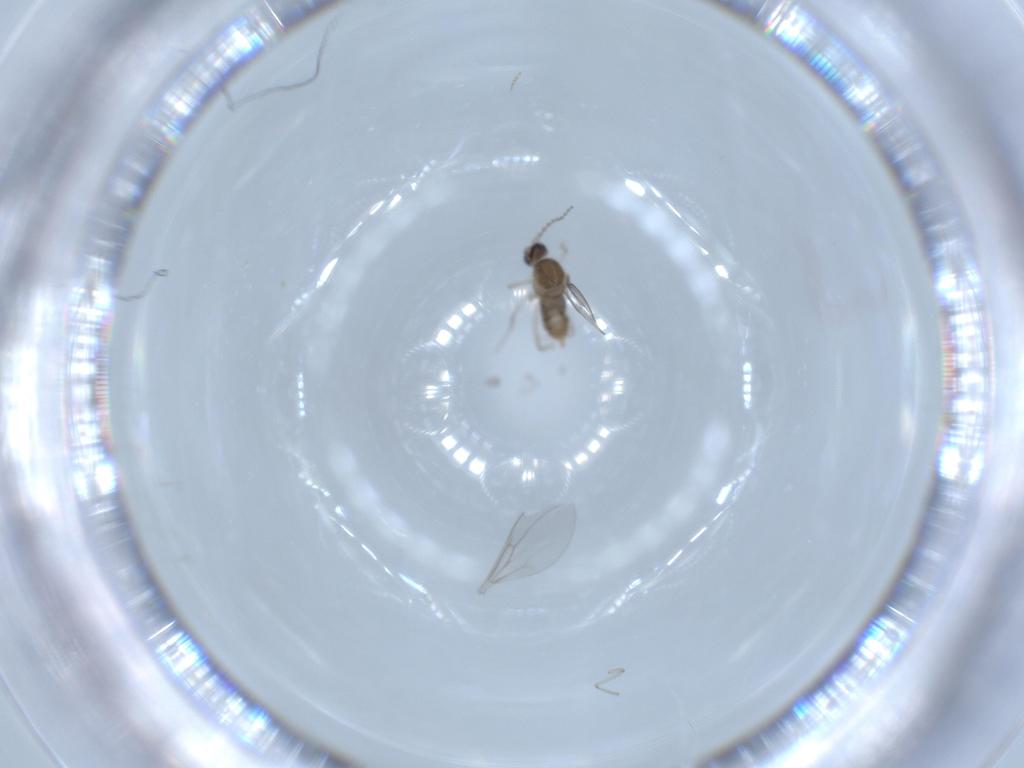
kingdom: Animalia
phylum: Arthropoda
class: Insecta
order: Diptera
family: Cecidomyiidae
